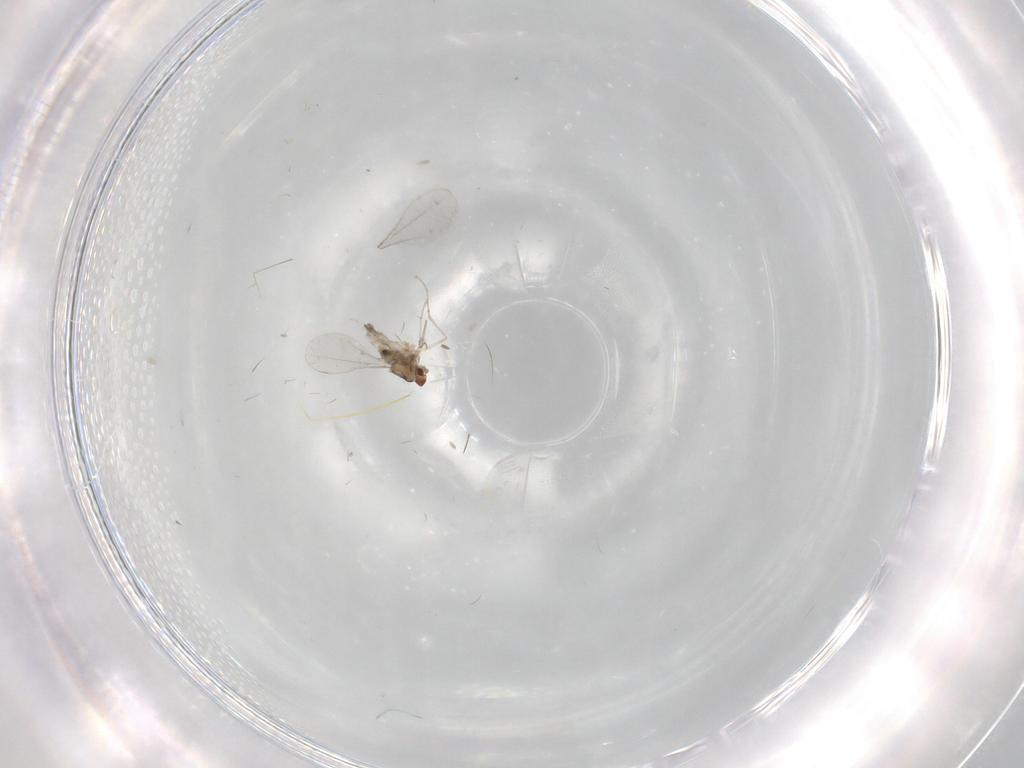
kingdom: Animalia
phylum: Arthropoda
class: Insecta
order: Diptera
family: Cecidomyiidae
